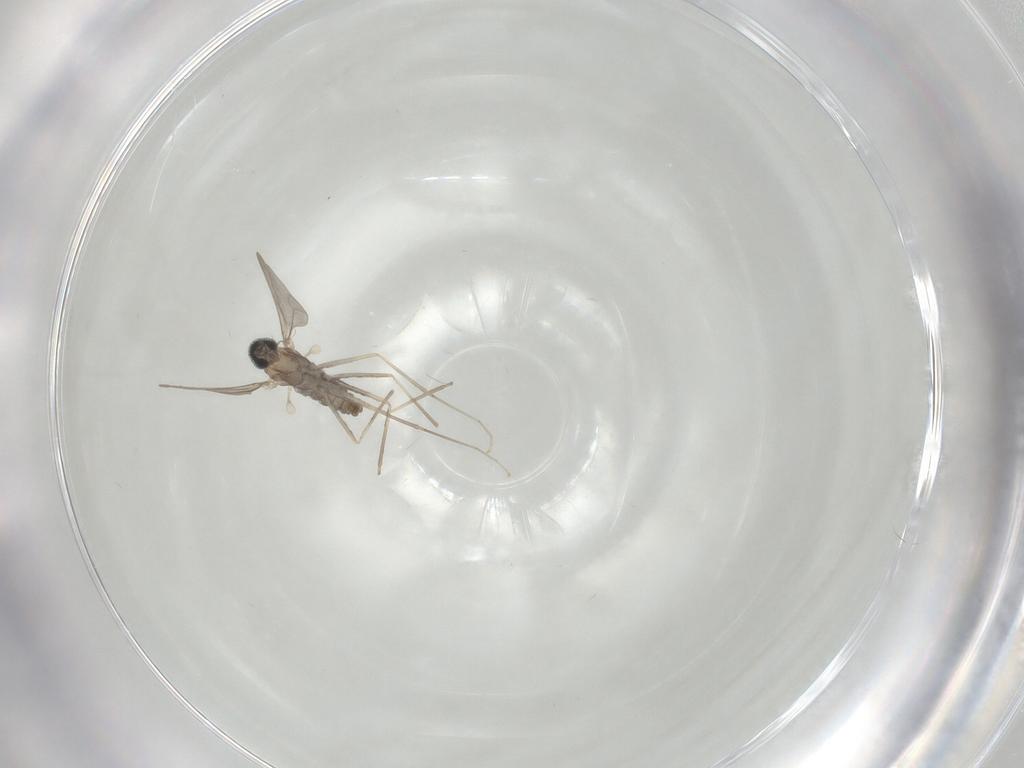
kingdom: Animalia
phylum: Arthropoda
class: Insecta
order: Diptera
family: Cecidomyiidae
